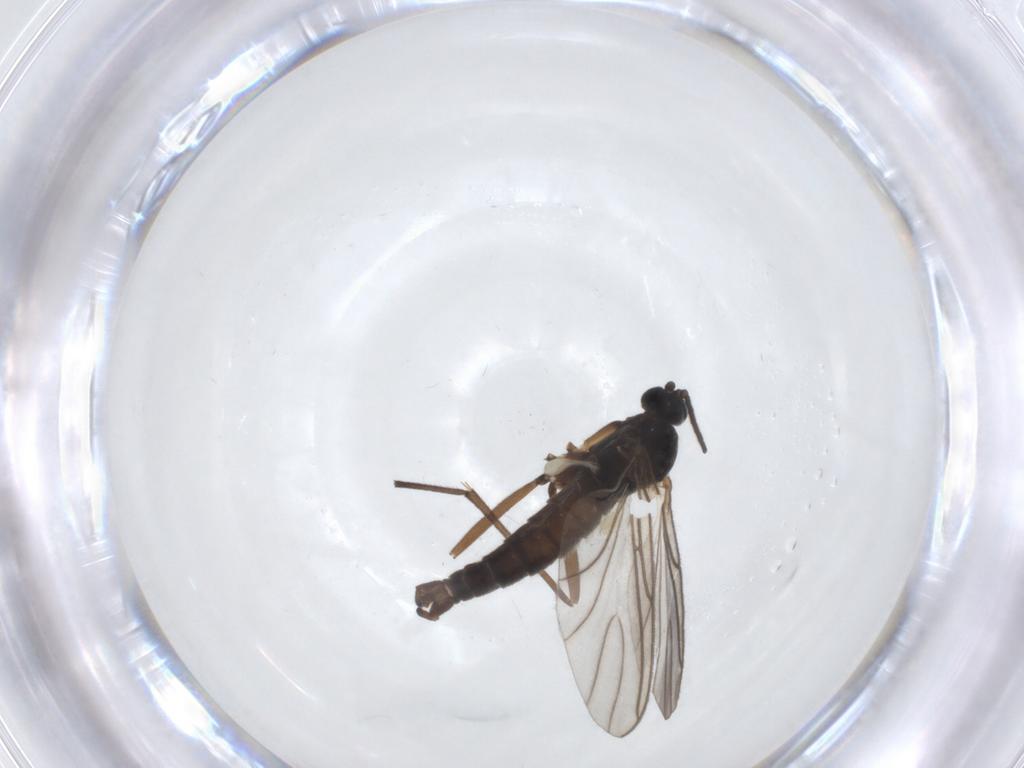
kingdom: Animalia
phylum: Arthropoda
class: Insecta
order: Diptera
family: Sciaridae
